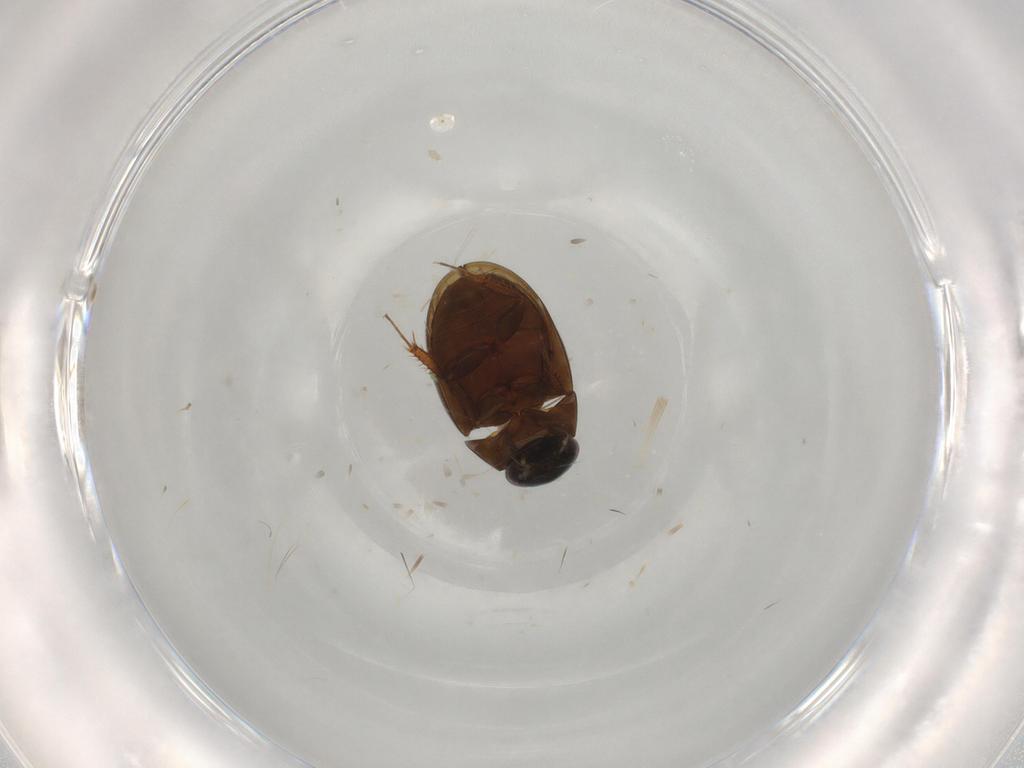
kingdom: Animalia
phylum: Arthropoda
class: Insecta
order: Coleoptera
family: Hydrophilidae
